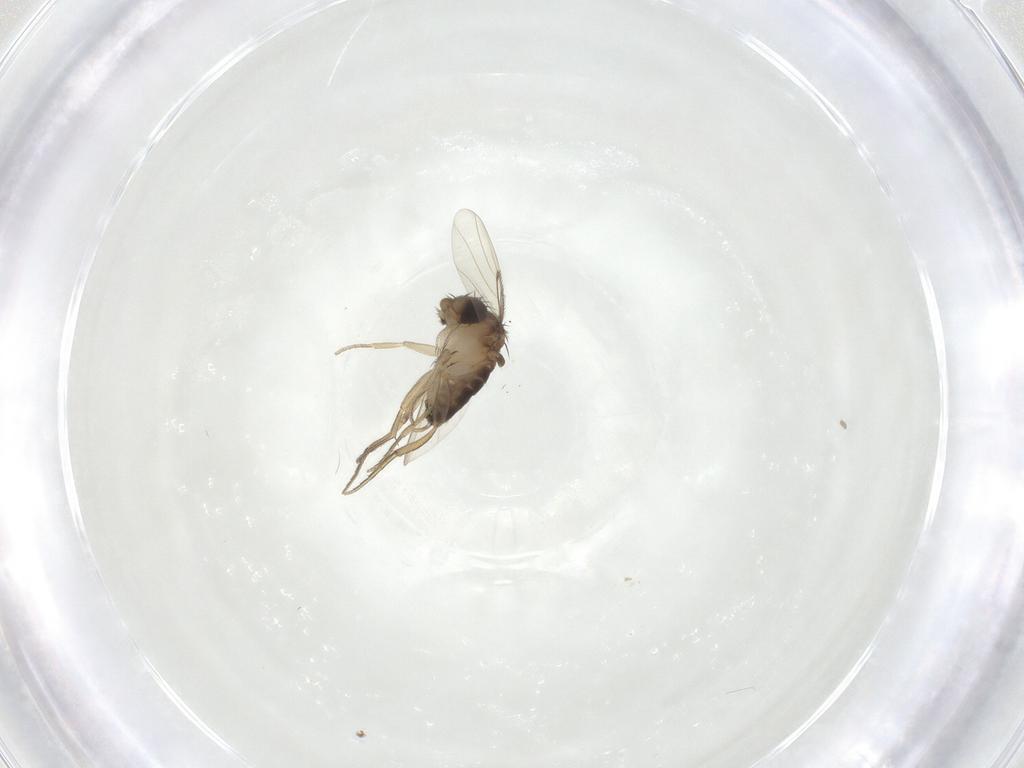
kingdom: Animalia
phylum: Arthropoda
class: Insecta
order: Diptera
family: Phoridae
